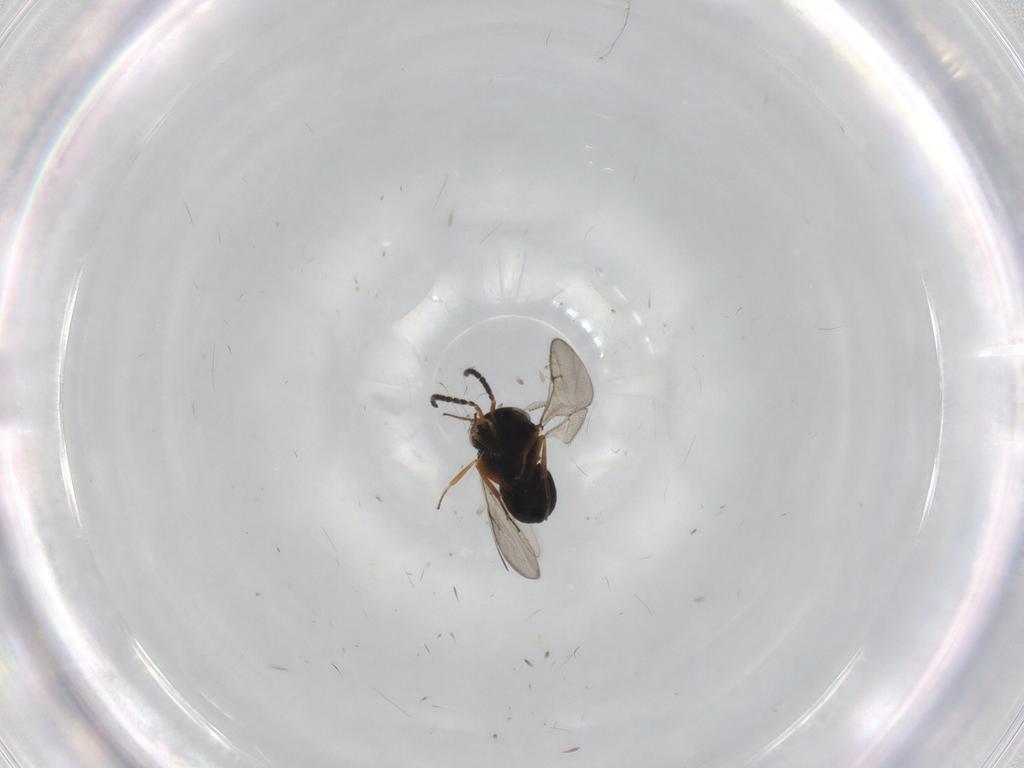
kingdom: Animalia
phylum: Arthropoda
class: Insecta
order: Hymenoptera
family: Scelionidae
